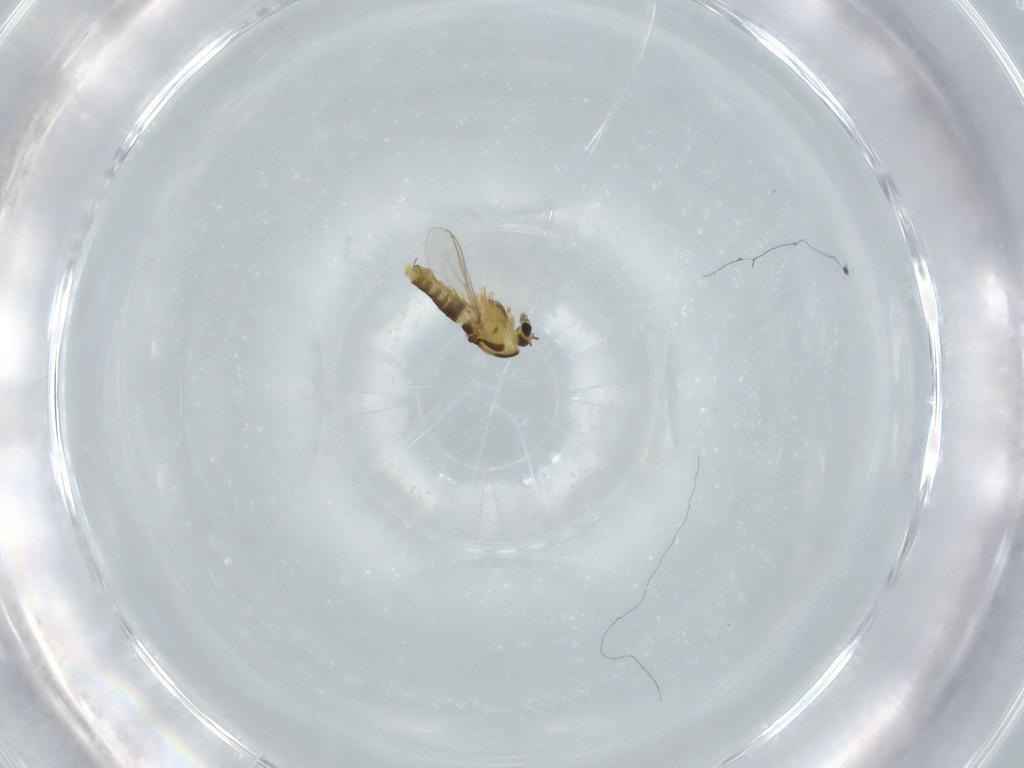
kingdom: Animalia
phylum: Arthropoda
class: Insecta
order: Diptera
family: Chironomidae
